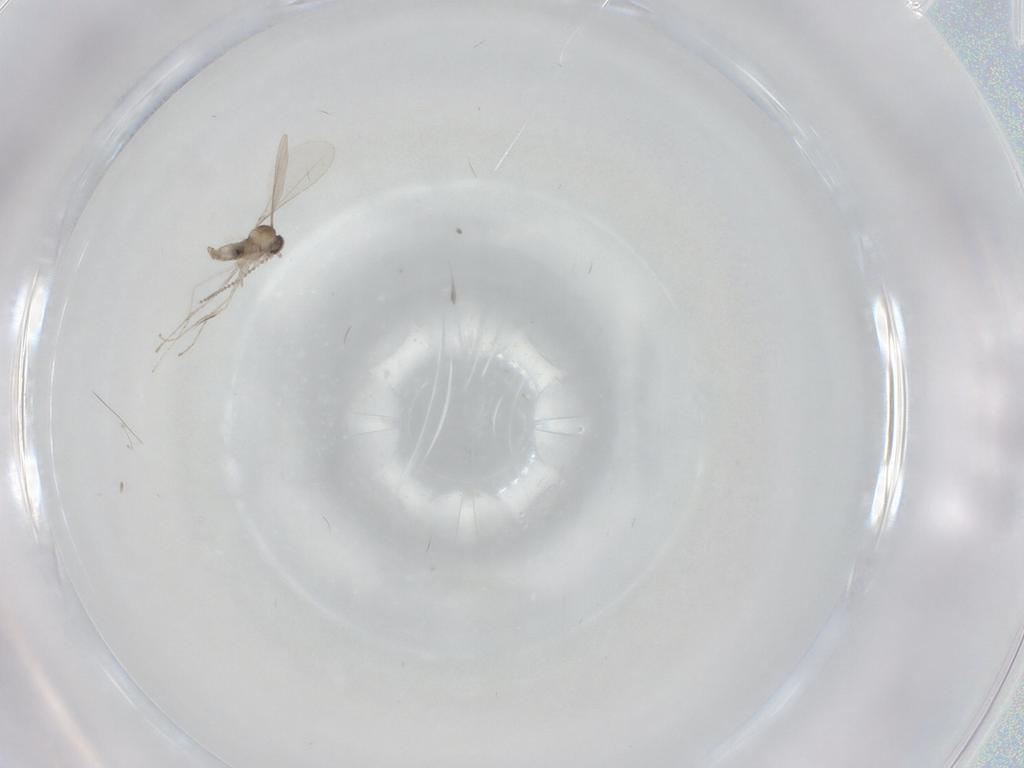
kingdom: Animalia
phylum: Arthropoda
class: Insecta
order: Diptera
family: Cecidomyiidae
